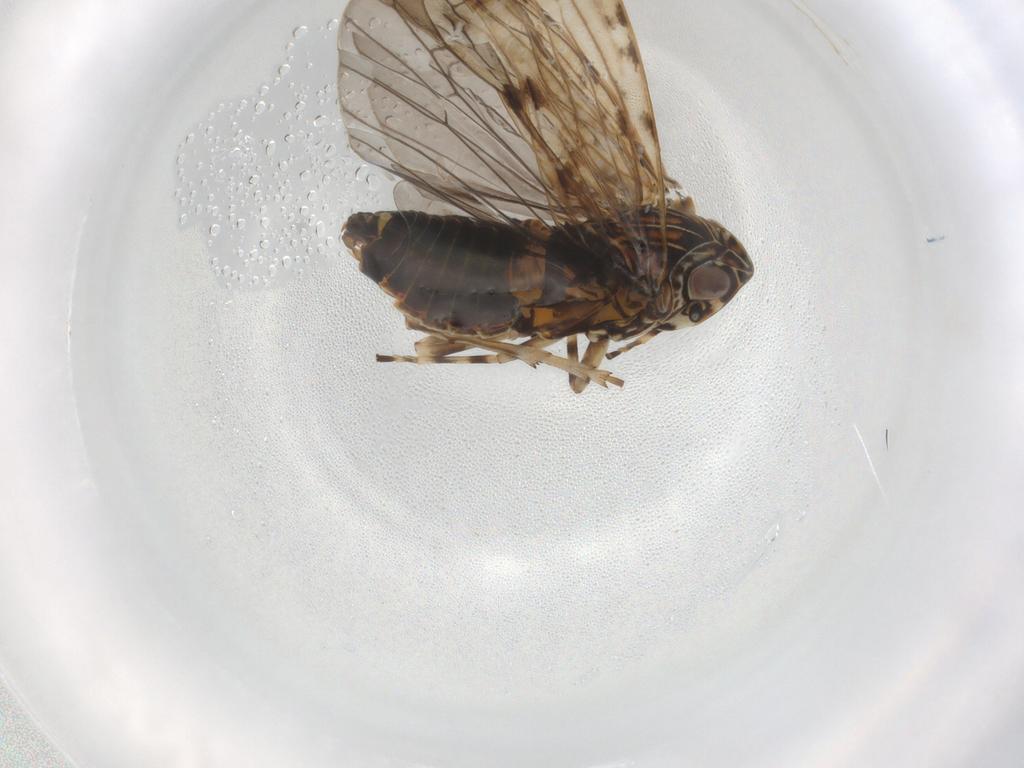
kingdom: Animalia
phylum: Arthropoda
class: Insecta
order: Hemiptera
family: Achilidae
